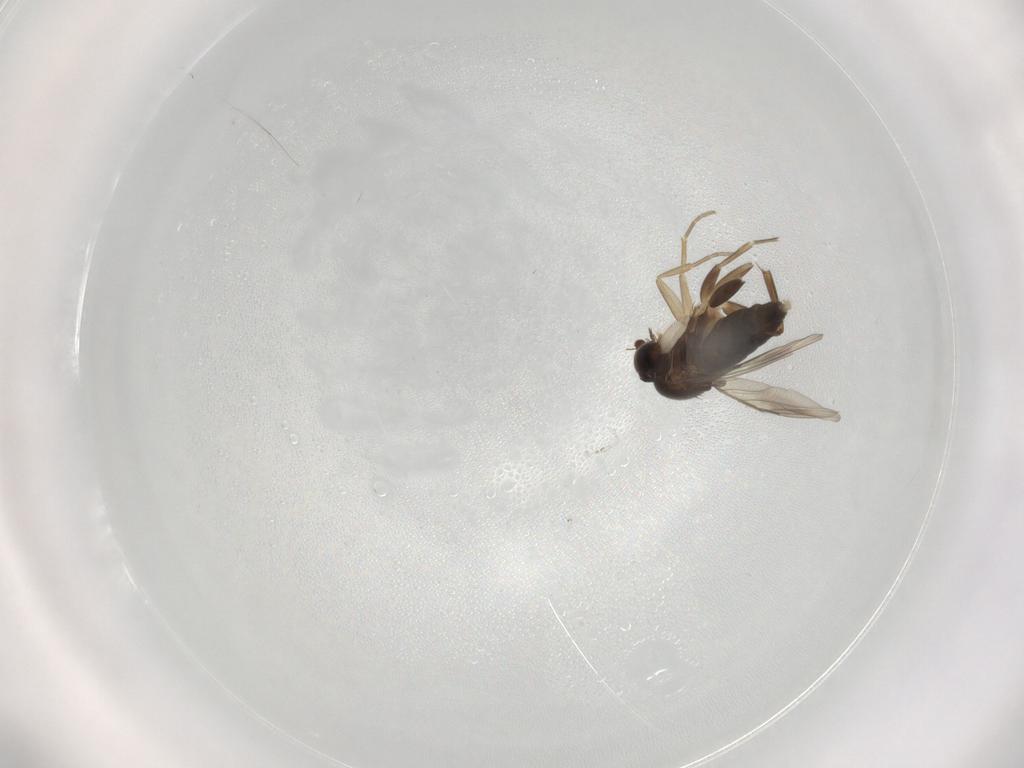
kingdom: Animalia
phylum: Arthropoda
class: Insecta
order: Diptera
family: Phoridae
